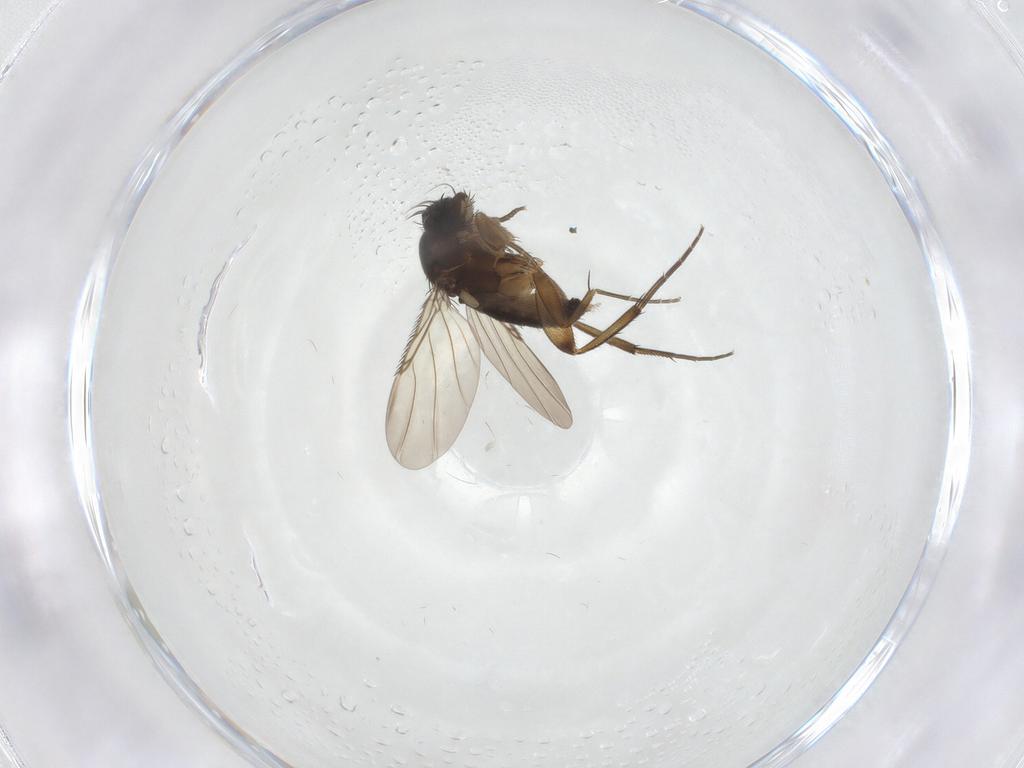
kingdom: Animalia
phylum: Arthropoda
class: Insecta
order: Diptera
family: Phoridae
